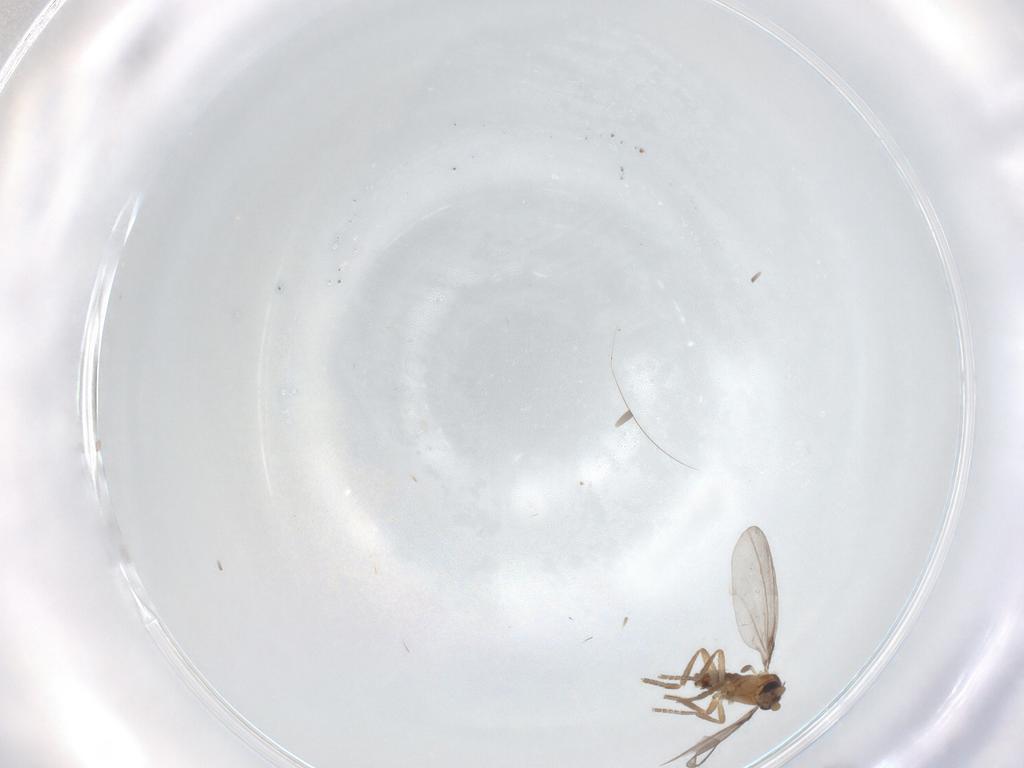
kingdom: Animalia
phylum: Arthropoda
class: Insecta
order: Diptera
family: Phoridae
